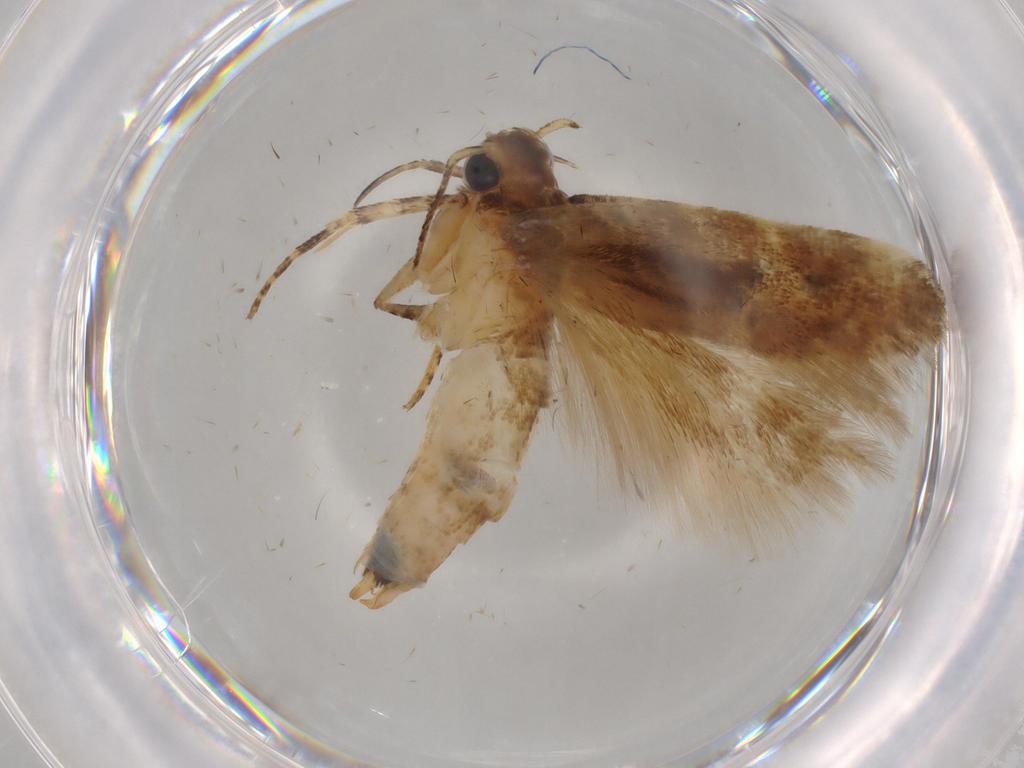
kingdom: Animalia
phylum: Arthropoda
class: Insecta
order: Lepidoptera
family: Gelechiidae
